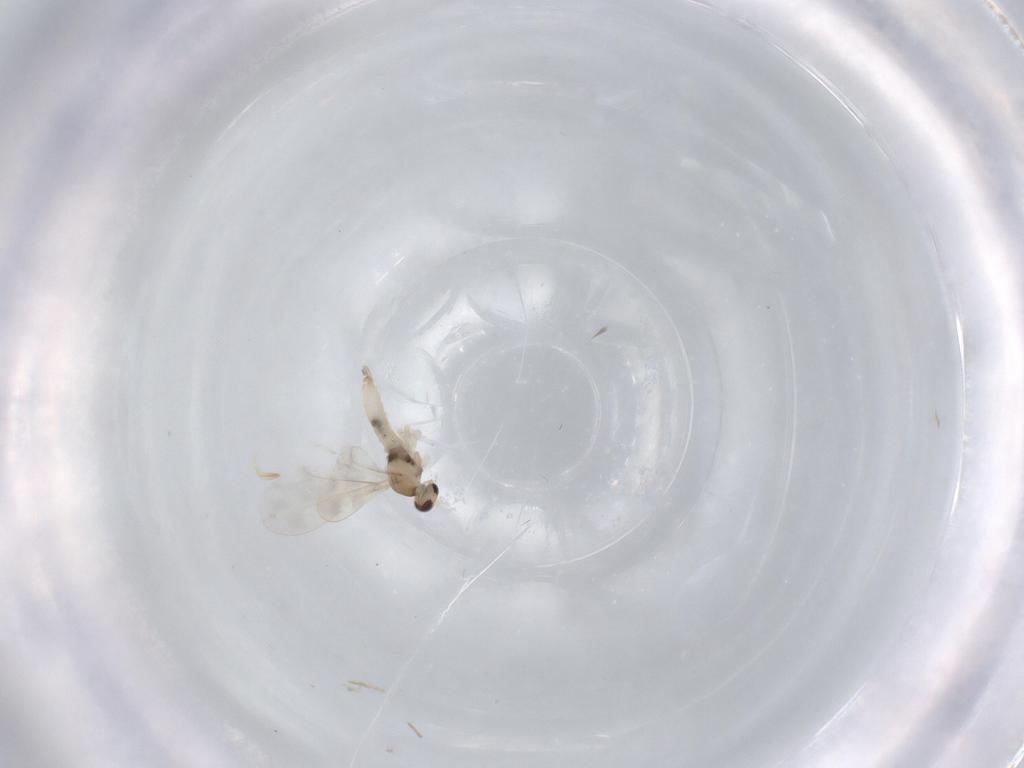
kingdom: Animalia
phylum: Arthropoda
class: Insecta
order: Diptera
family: Cecidomyiidae
